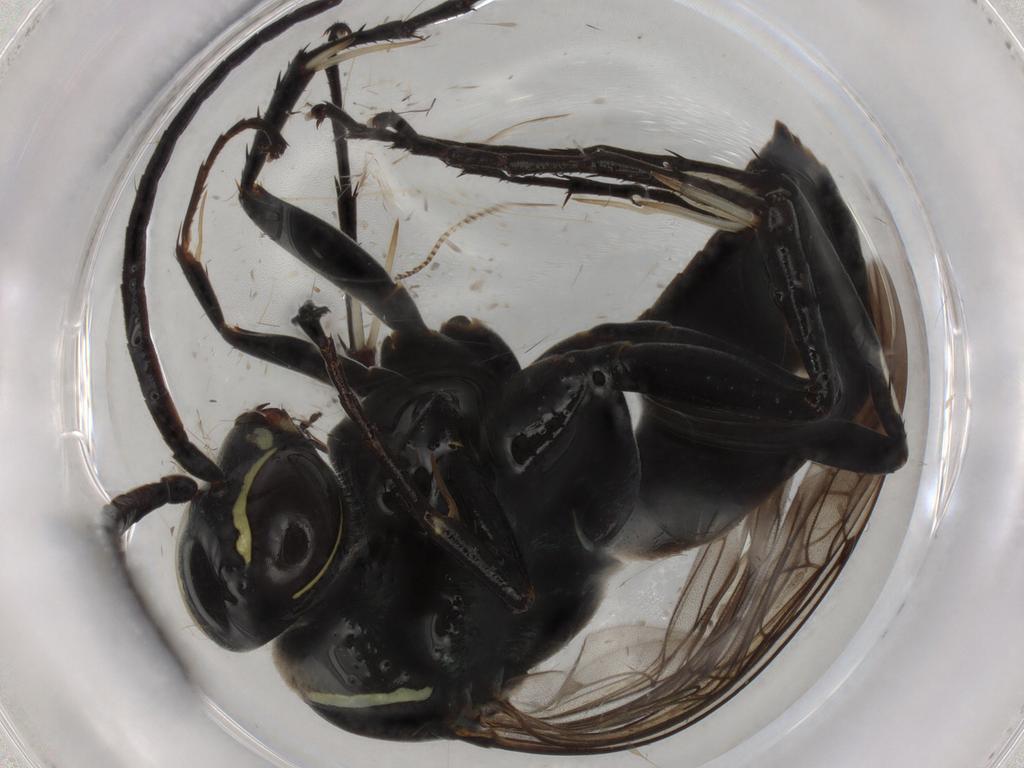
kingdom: Animalia
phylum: Arthropoda
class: Insecta
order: Hymenoptera
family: Pompilidae
